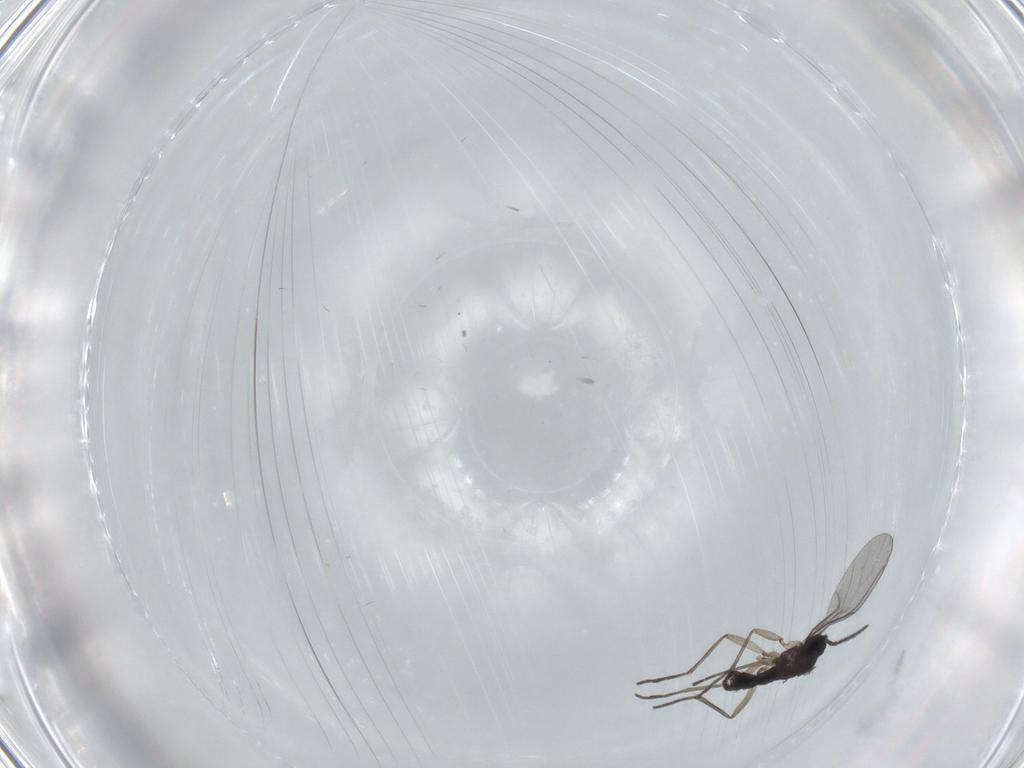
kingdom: Animalia
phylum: Arthropoda
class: Insecta
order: Diptera
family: Sciaridae
